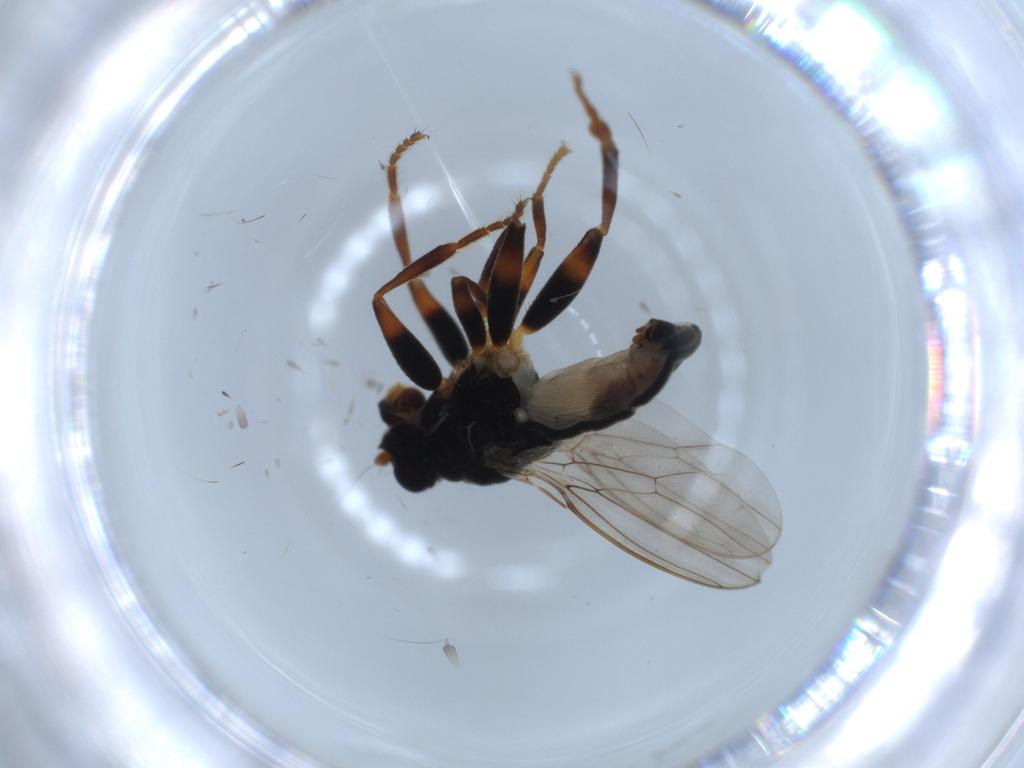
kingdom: Animalia
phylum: Arthropoda
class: Insecta
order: Diptera
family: Sphaeroceridae
